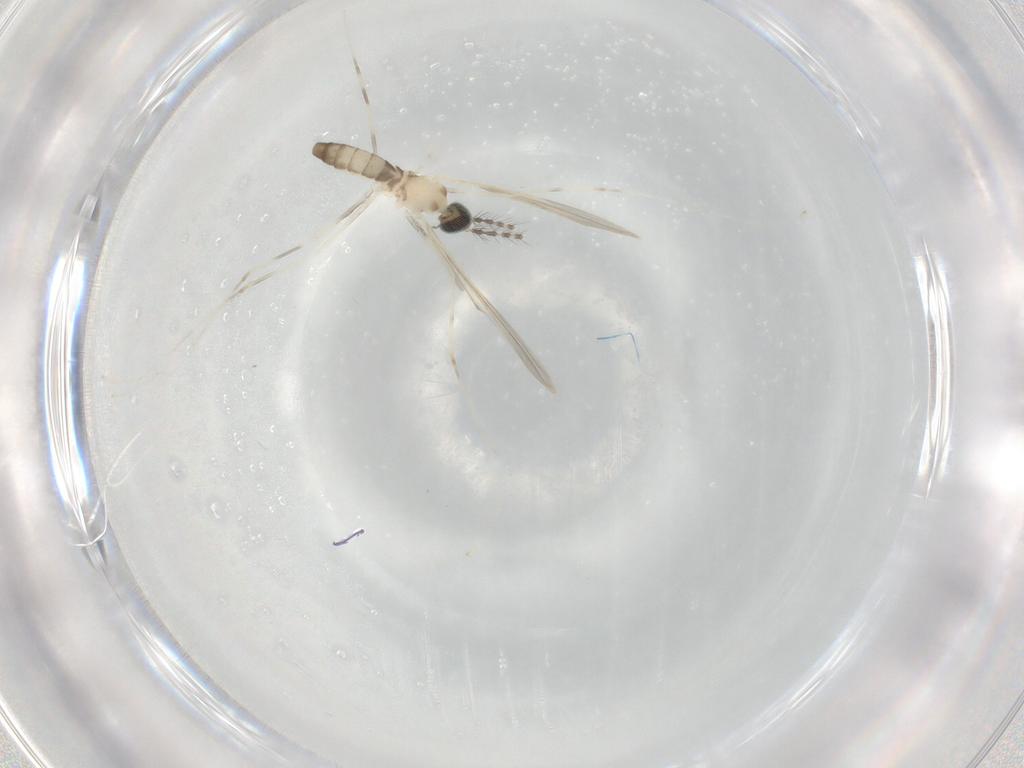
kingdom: Animalia
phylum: Arthropoda
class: Insecta
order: Diptera
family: Cecidomyiidae
